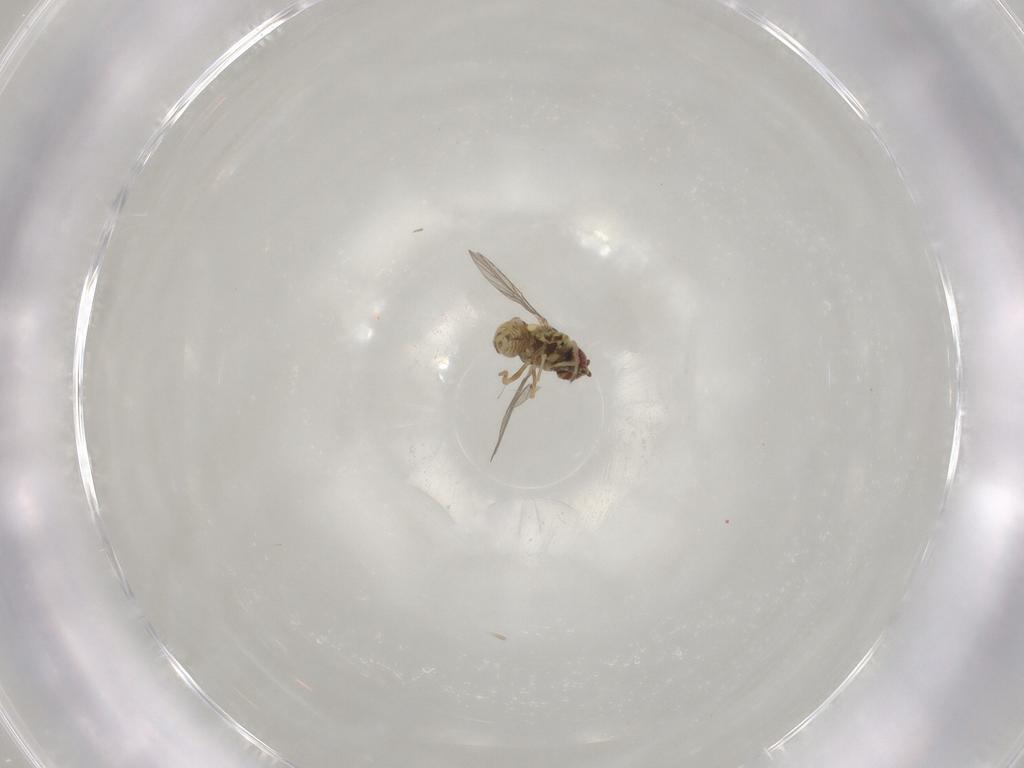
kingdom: Animalia
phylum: Arthropoda
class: Insecta
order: Diptera
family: Mythicomyiidae
